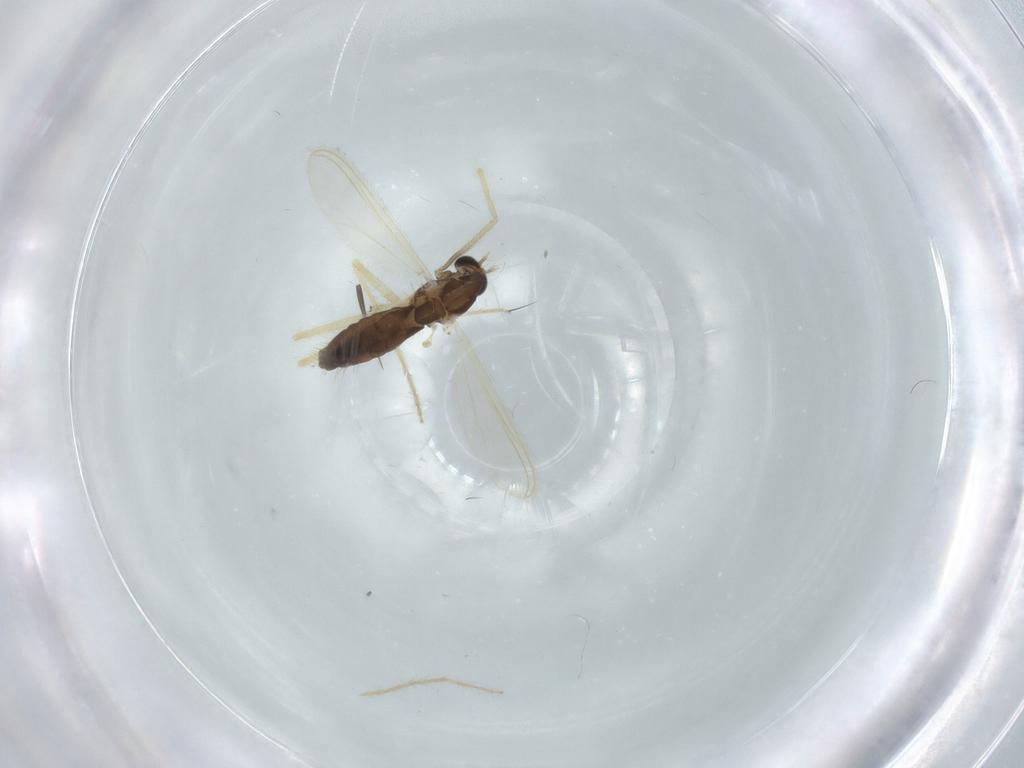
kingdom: Animalia
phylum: Arthropoda
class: Insecta
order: Diptera
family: Chironomidae
